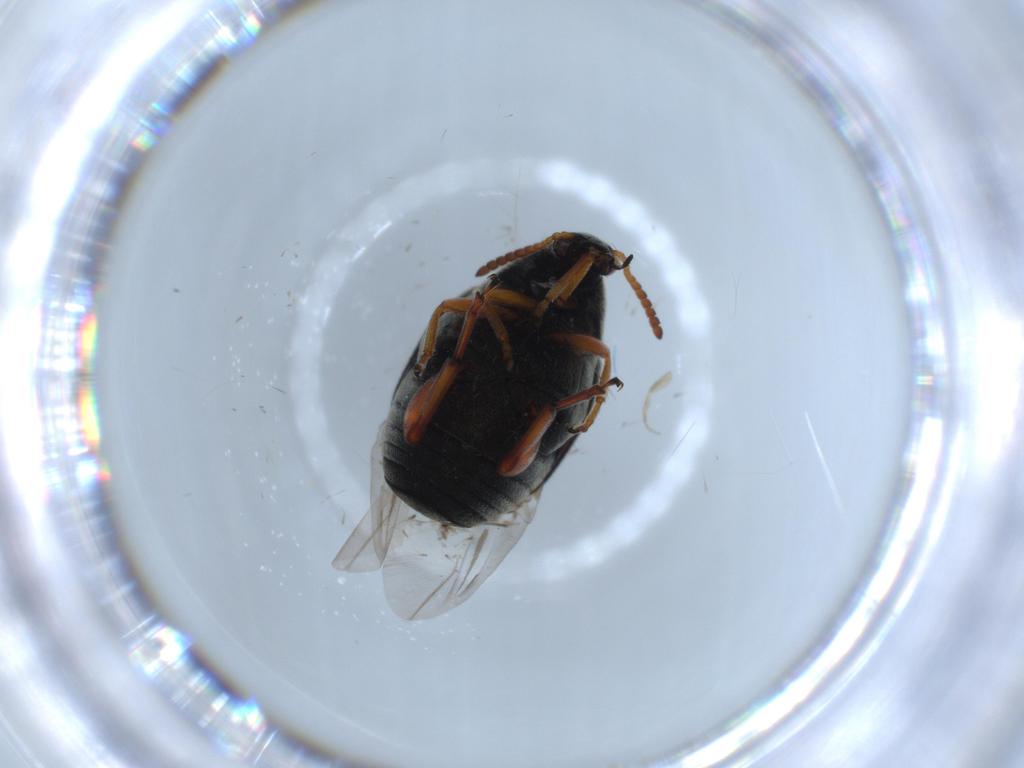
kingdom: Animalia
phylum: Arthropoda
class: Insecta
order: Coleoptera
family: Chrysomelidae
